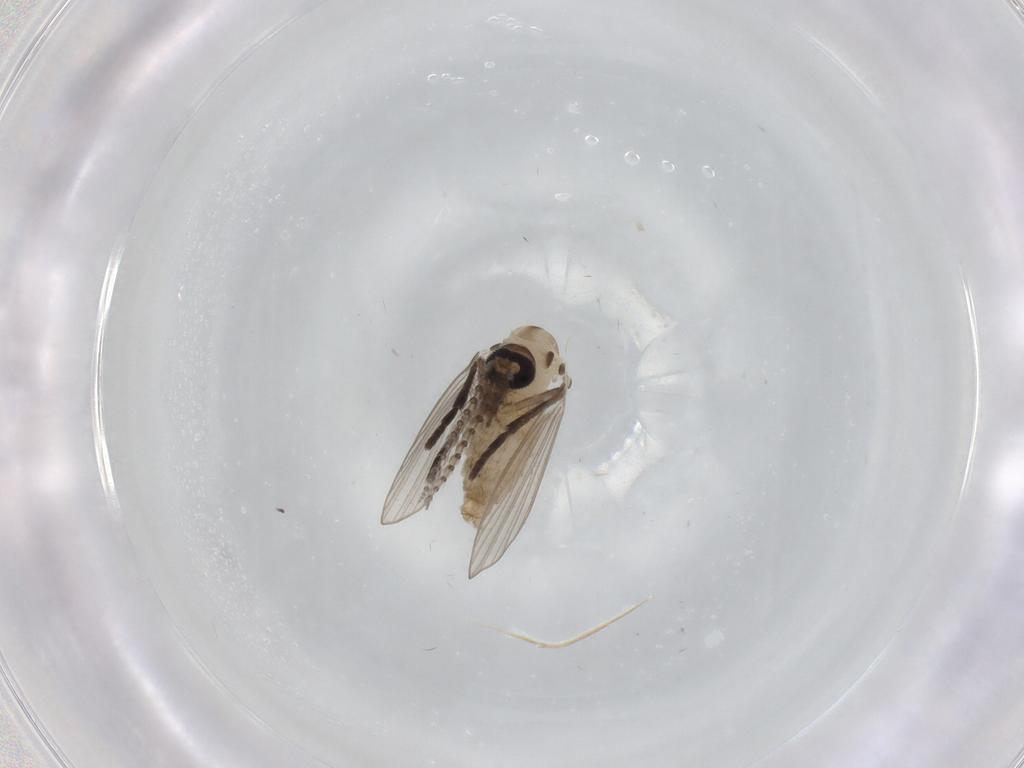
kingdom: Animalia
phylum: Arthropoda
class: Insecta
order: Diptera
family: Psychodidae
